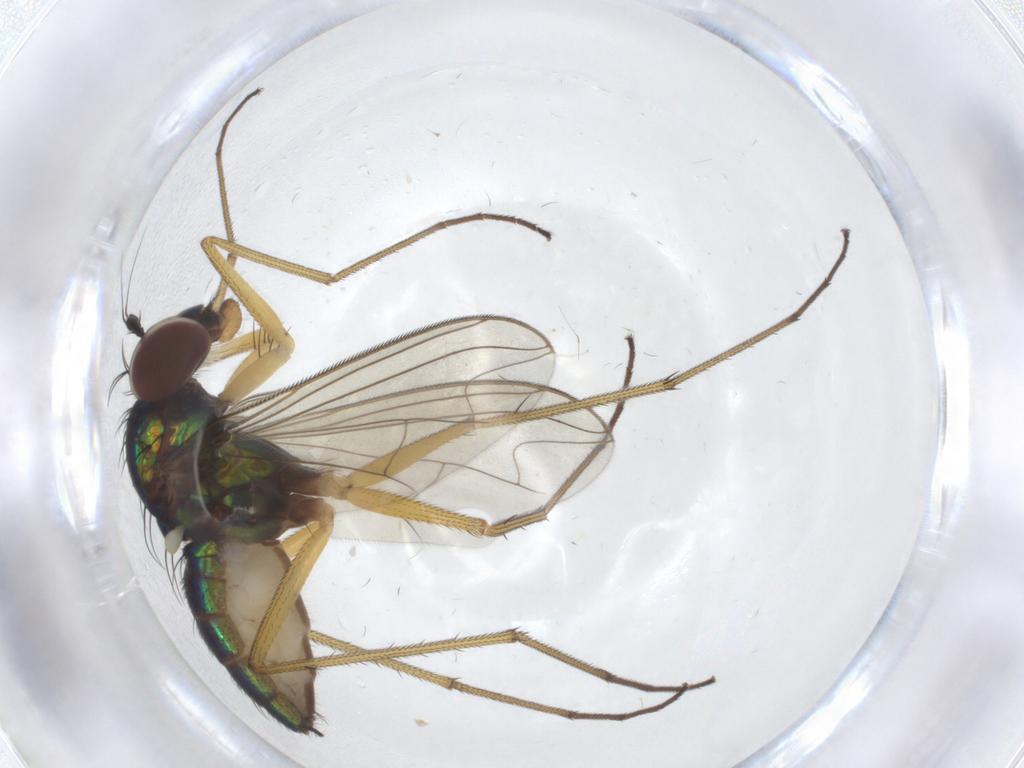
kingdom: Animalia
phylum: Arthropoda
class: Insecta
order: Diptera
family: Dolichopodidae
